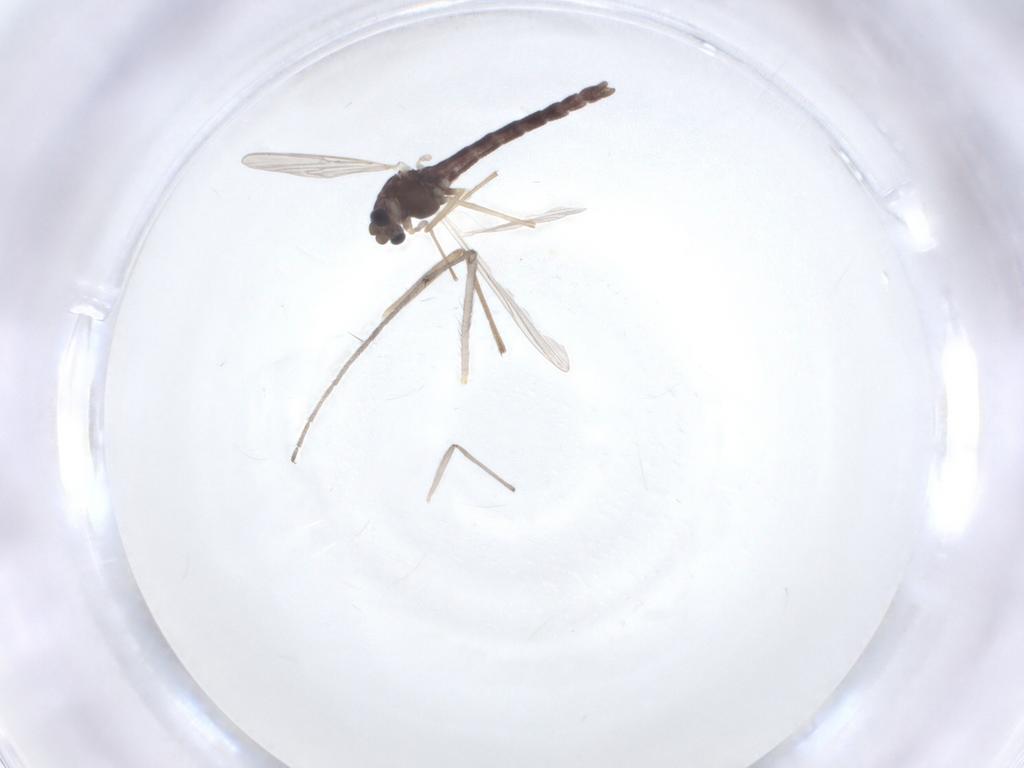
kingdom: Animalia
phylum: Arthropoda
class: Insecta
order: Diptera
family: Chironomidae
